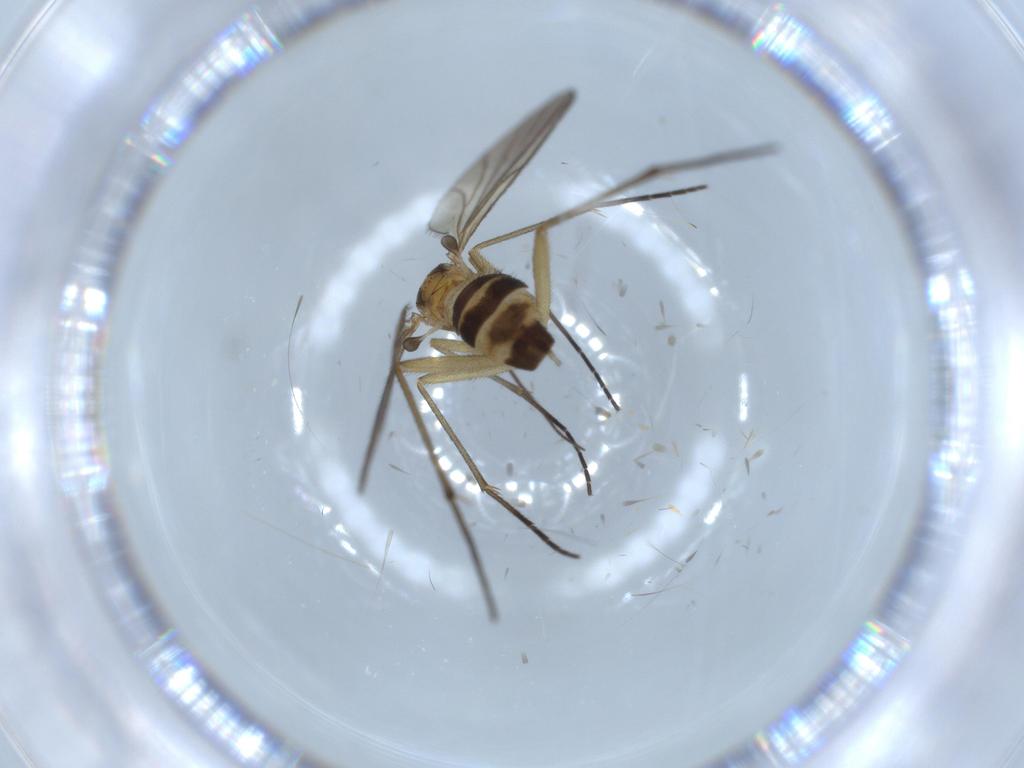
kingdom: Animalia
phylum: Arthropoda
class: Insecta
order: Diptera
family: Cecidomyiidae
